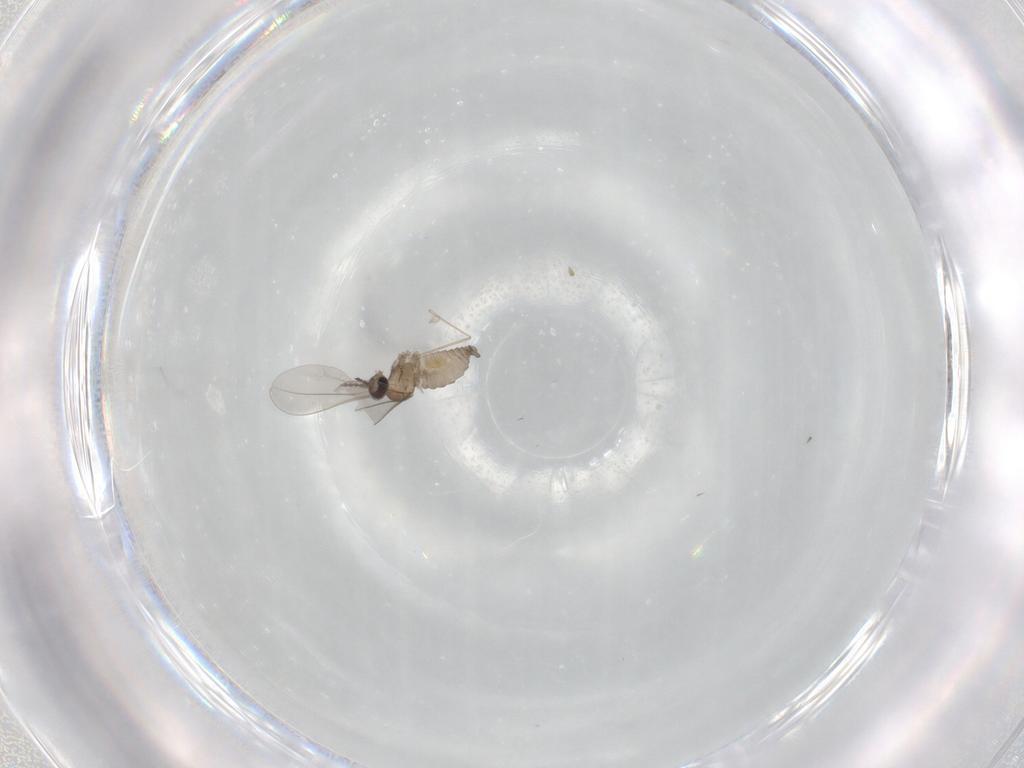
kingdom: Animalia
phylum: Arthropoda
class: Insecta
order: Diptera
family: Cecidomyiidae
